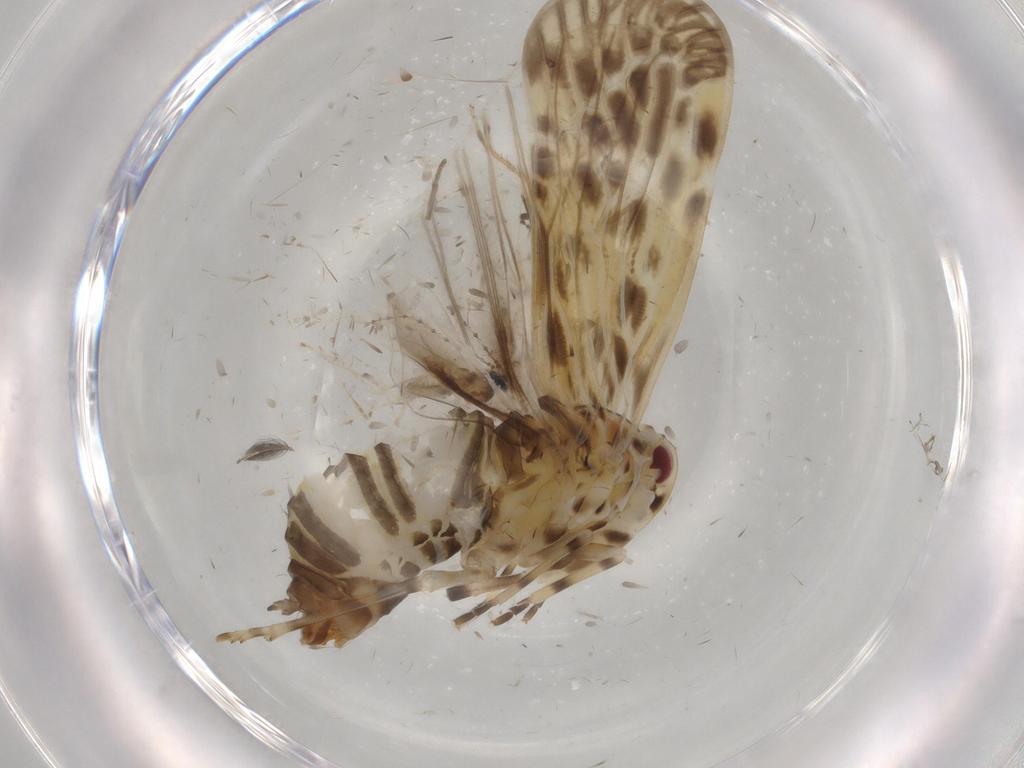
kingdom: Animalia
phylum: Arthropoda
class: Insecta
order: Hemiptera
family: Derbidae
